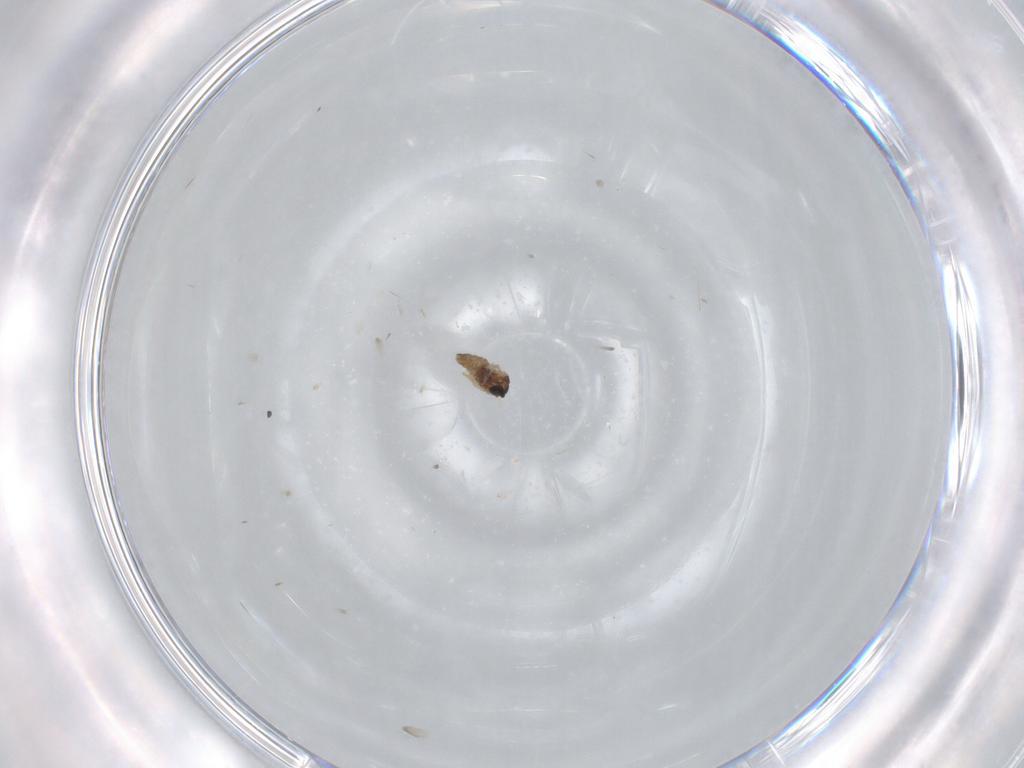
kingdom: Animalia
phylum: Arthropoda
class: Insecta
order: Diptera
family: Cecidomyiidae
